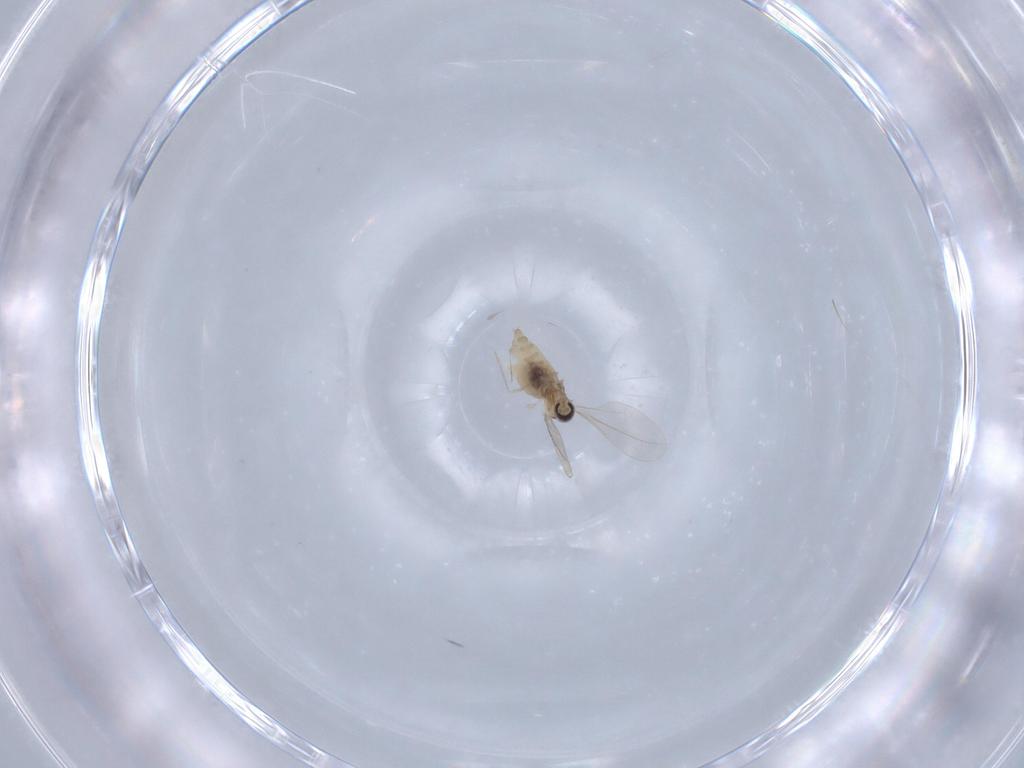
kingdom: Animalia
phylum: Arthropoda
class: Insecta
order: Diptera
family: Cecidomyiidae
